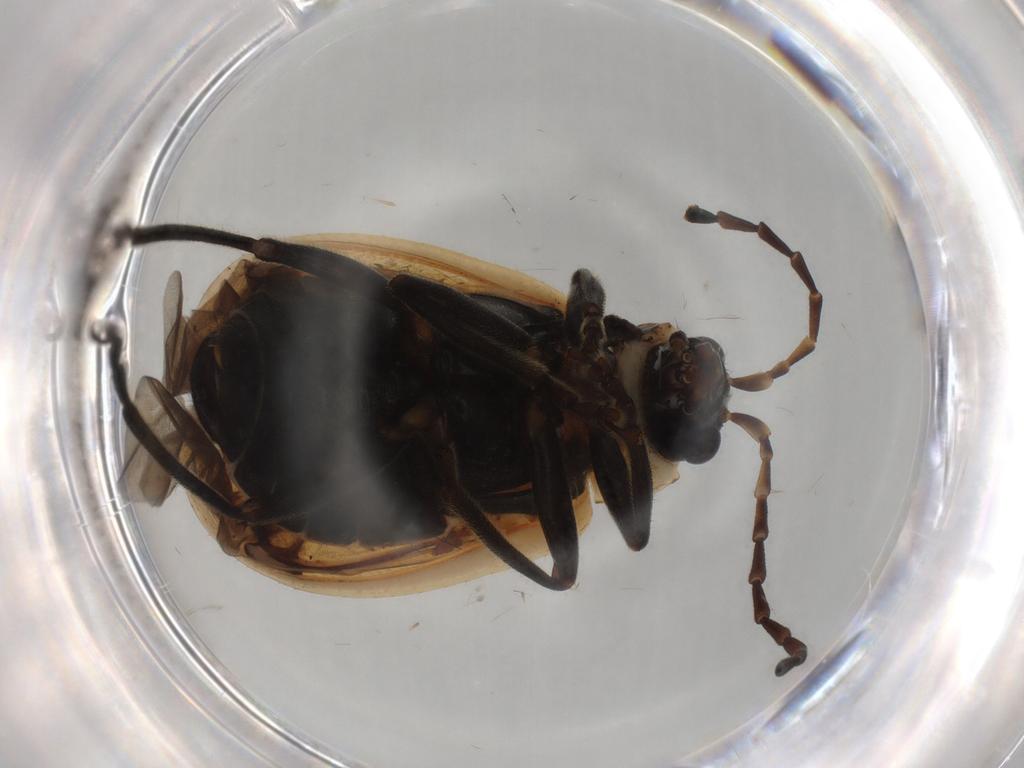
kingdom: Animalia
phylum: Arthropoda
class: Insecta
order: Coleoptera
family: Chrysomelidae
